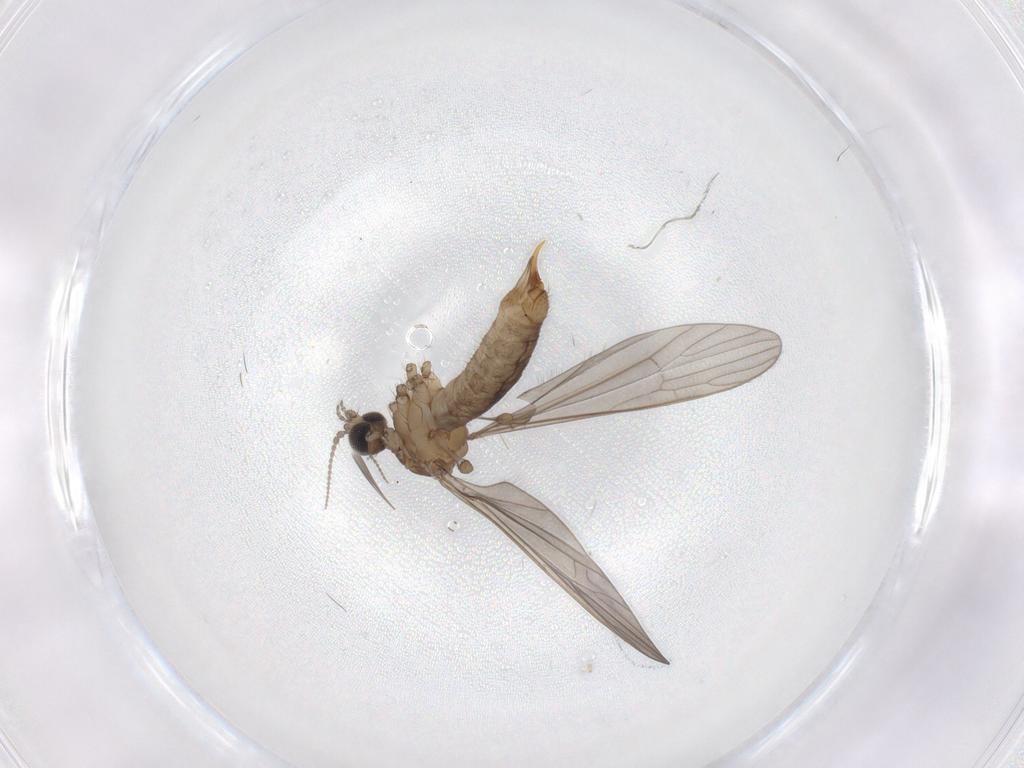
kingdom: Animalia
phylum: Arthropoda
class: Insecta
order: Diptera
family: Limoniidae
